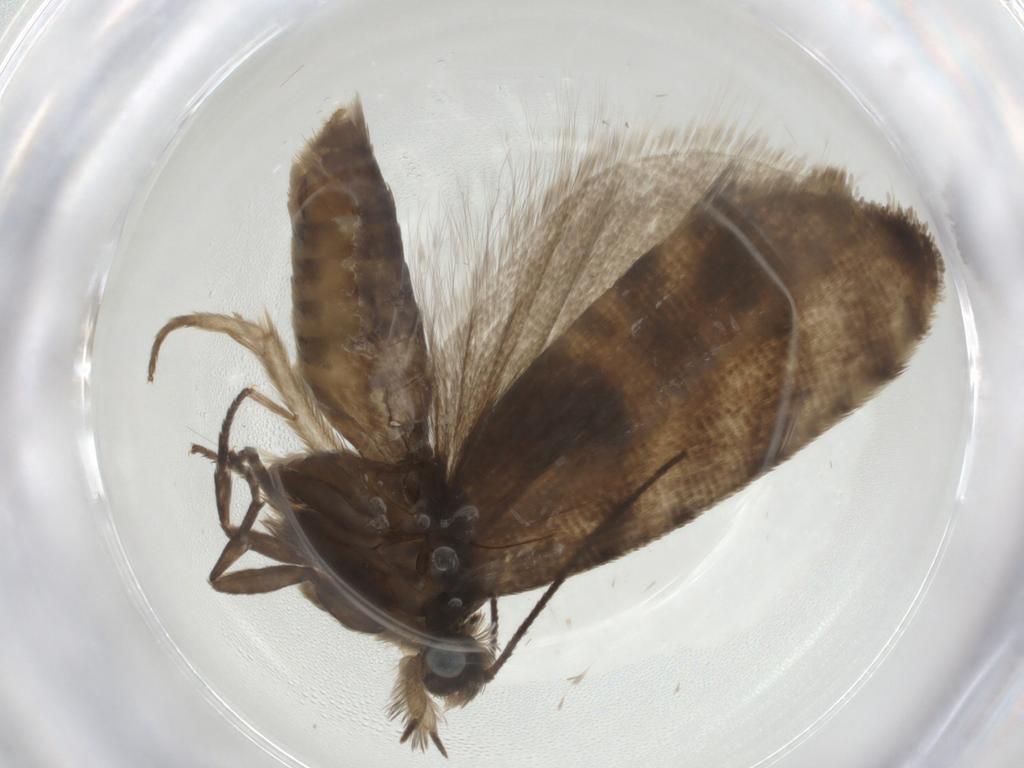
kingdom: Animalia
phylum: Arthropoda
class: Insecta
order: Lepidoptera
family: Tortricidae
